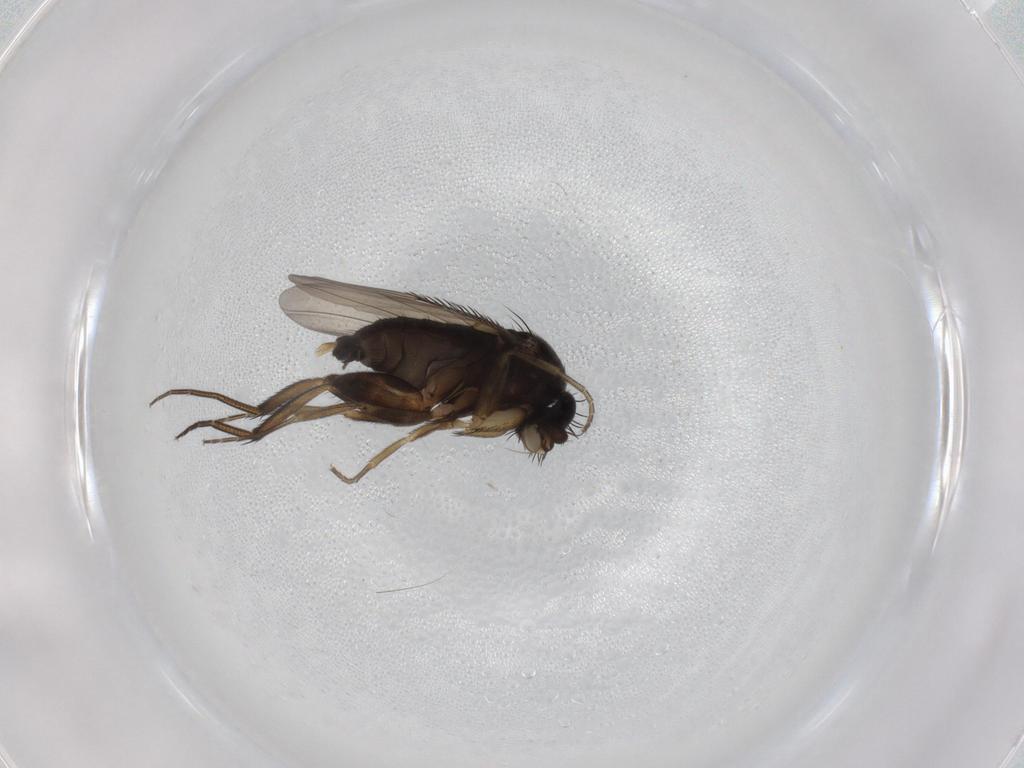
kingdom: Animalia
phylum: Arthropoda
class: Insecta
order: Diptera
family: Phoridae
